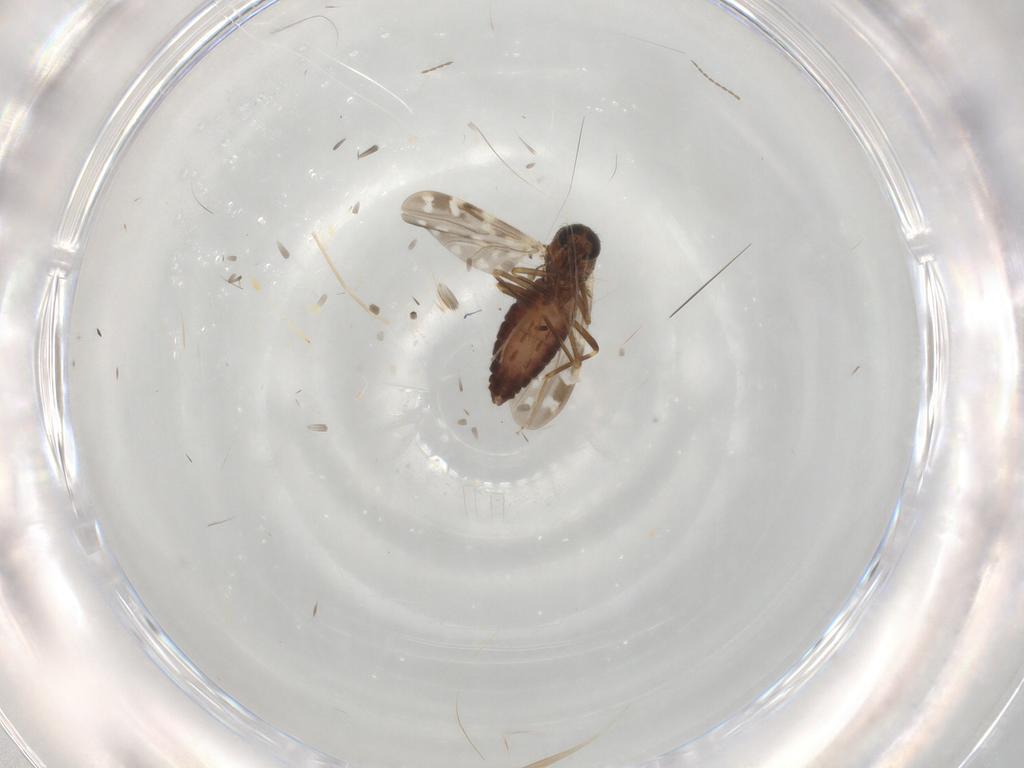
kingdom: Animalia
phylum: Arthropoda
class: Insecta
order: Diptera
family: Cecidomyiidae
